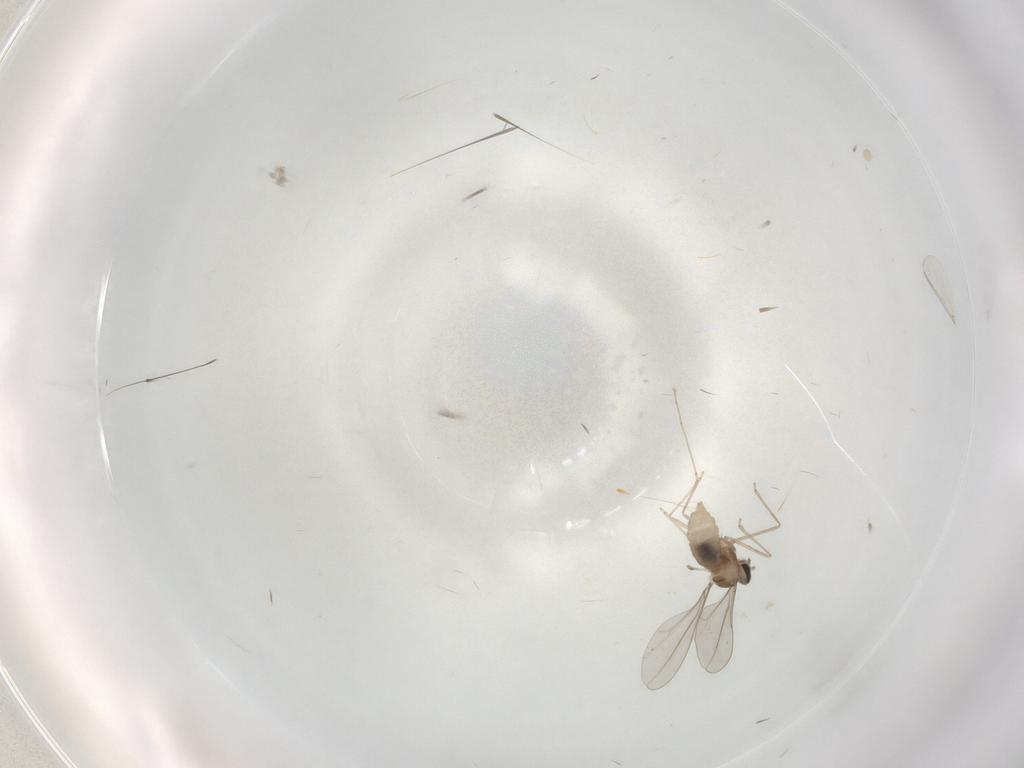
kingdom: Animalia
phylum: Arthropoda
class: Insecta
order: Diptera
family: Cecidomyiidae
